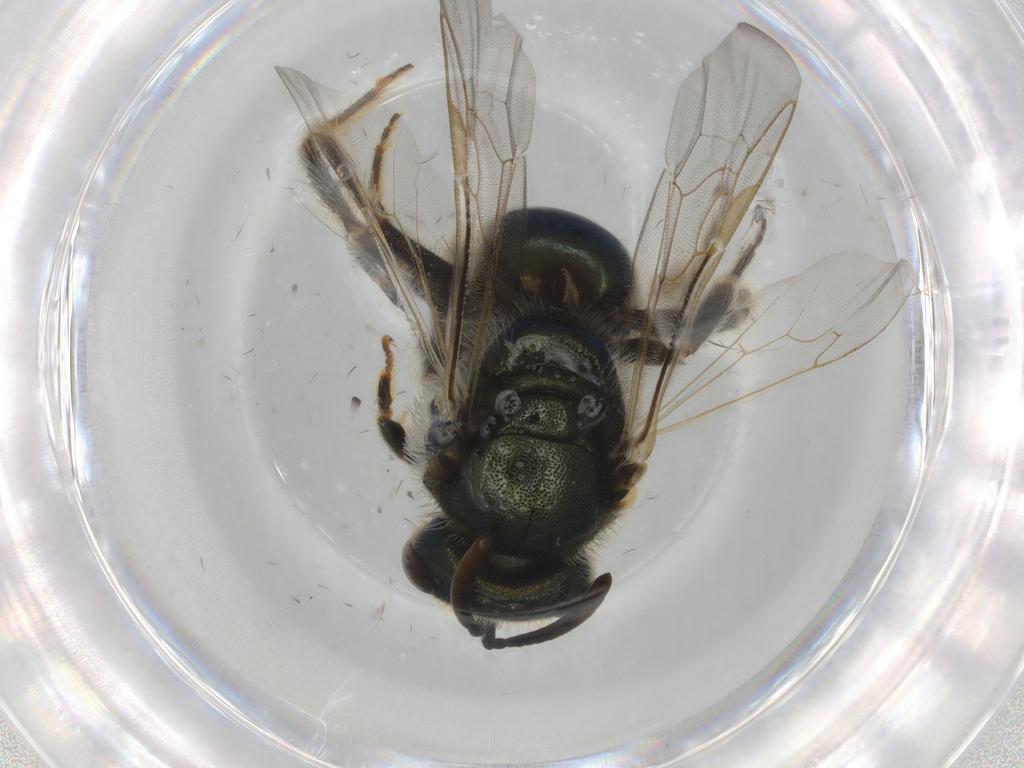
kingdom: Animalia
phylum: Arthropoda
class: Insecta
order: Hymenoptera
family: Halictidae
